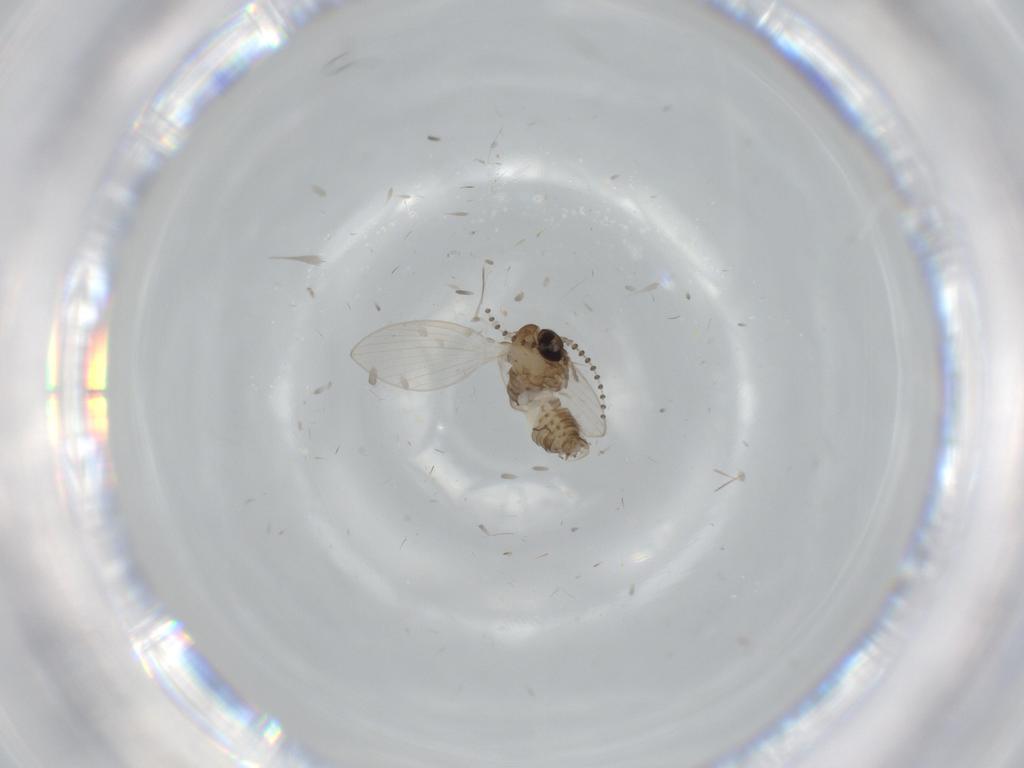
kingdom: Animalia
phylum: Arthropoda
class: Insecta
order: Diptera
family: Psychodidae
